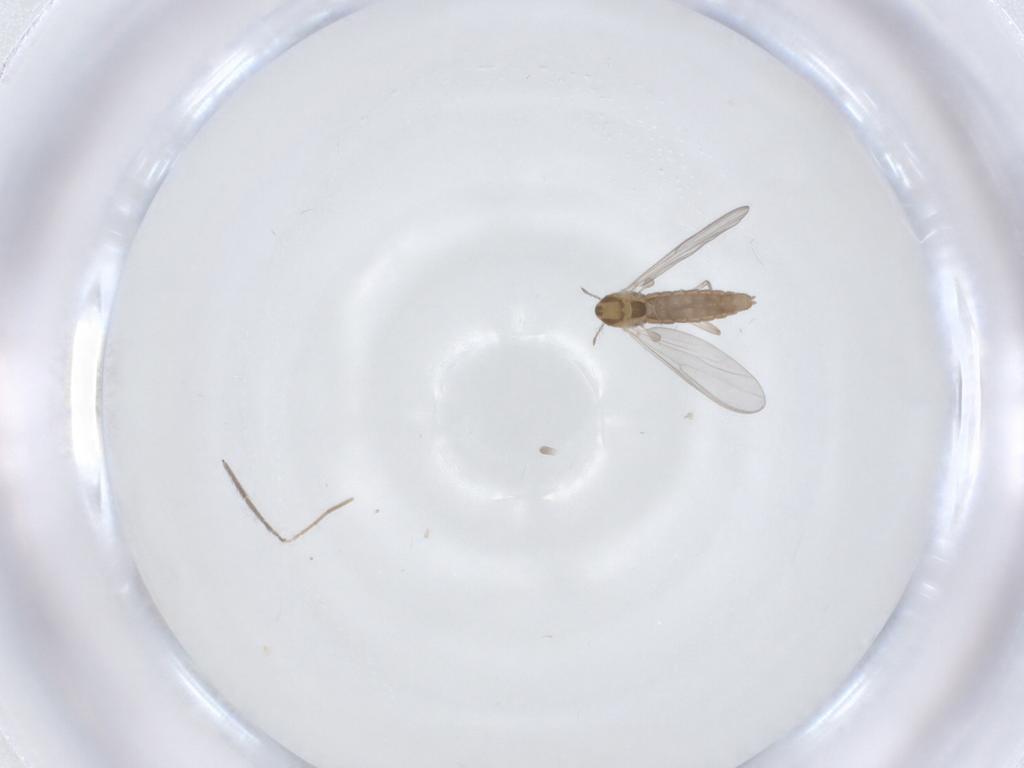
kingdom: Animalia
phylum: Arthropoda
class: Insecta
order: Diptera
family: Chironomidae
